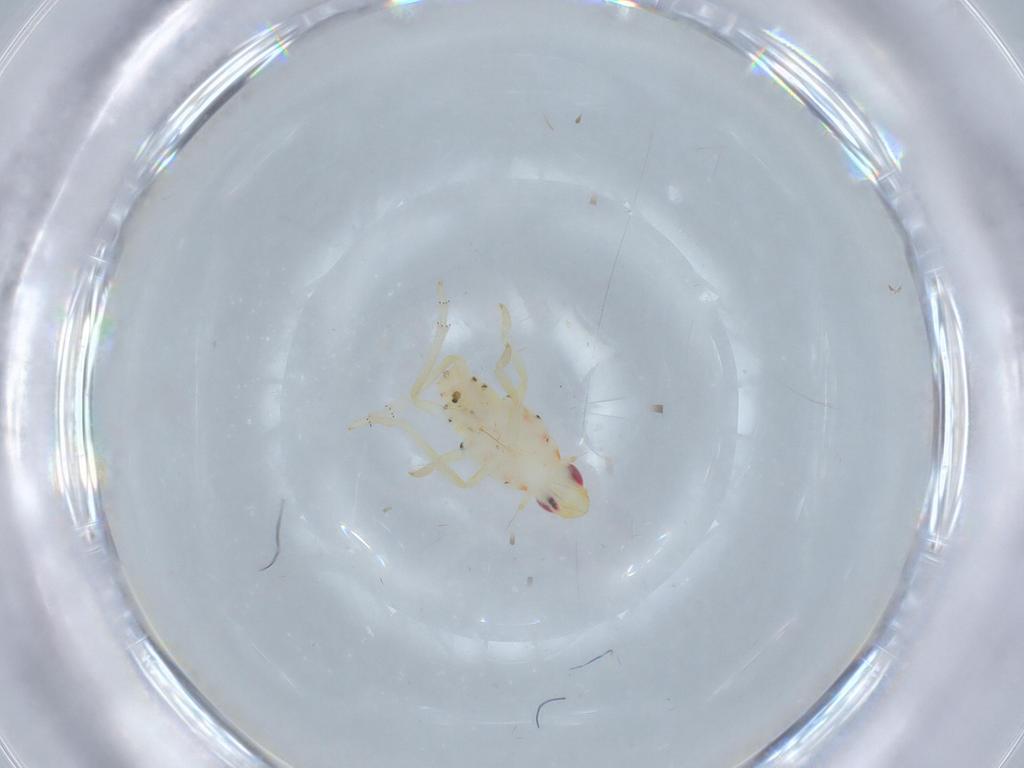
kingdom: Animalia
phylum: Arthropoda
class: Insecta
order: Hemiptera
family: Tropiduchidae
